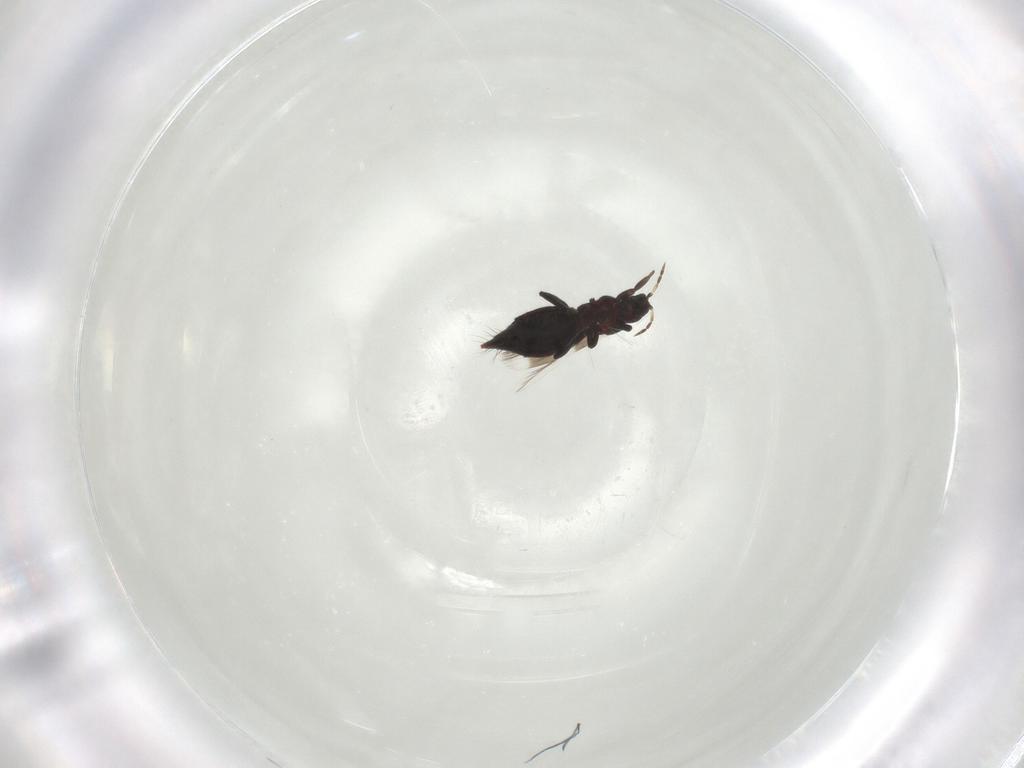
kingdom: Animalia
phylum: Arthropoda
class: Insecta
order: Thysanoptera
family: Aeolothripidae
